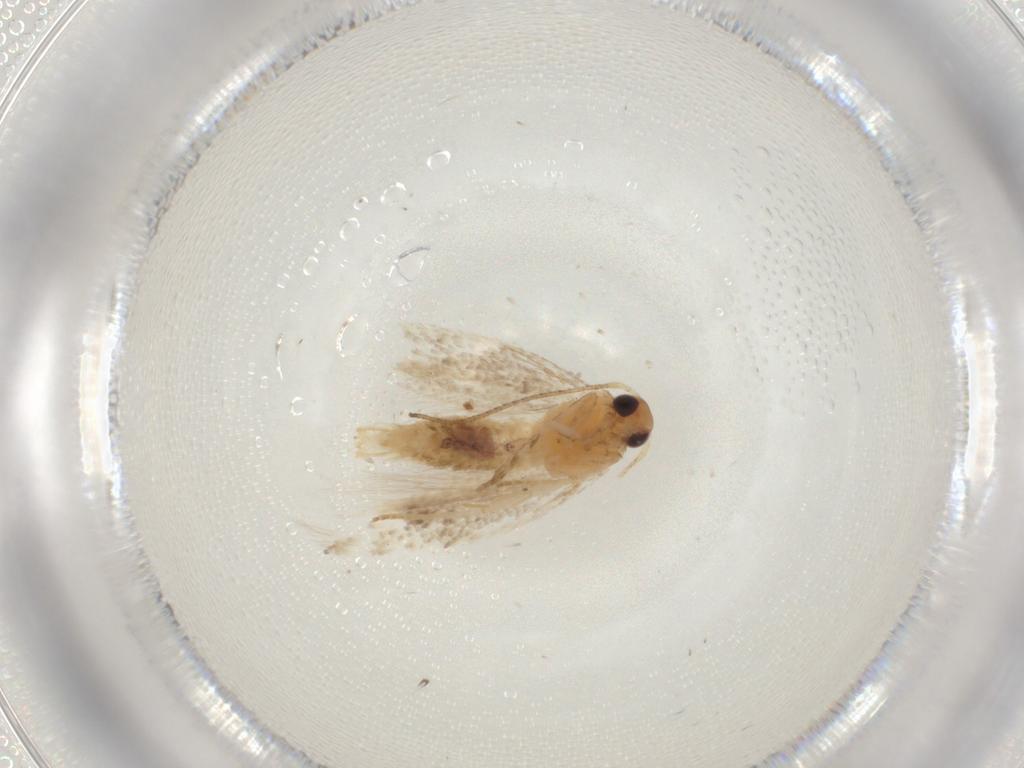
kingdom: Animalia
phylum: Arthropoda
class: Insecta
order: Lepidoptera
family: Gelechiidae
